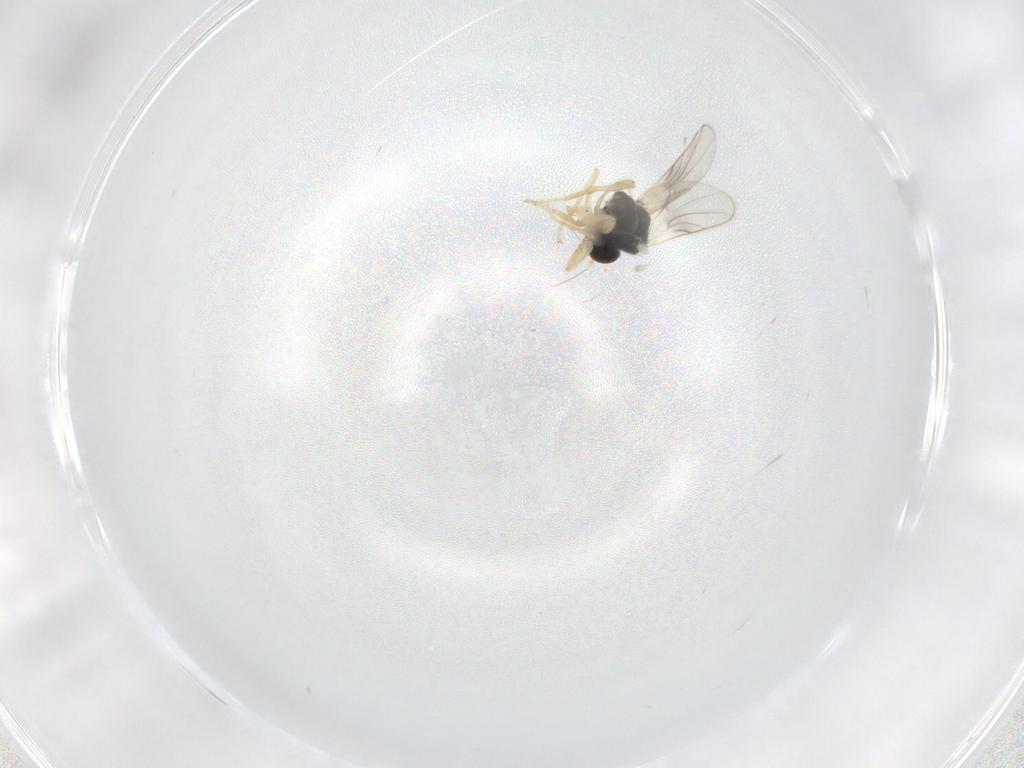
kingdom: Animalia
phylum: Arthropoda
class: Insecta
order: Diptera
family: Hybotidae
